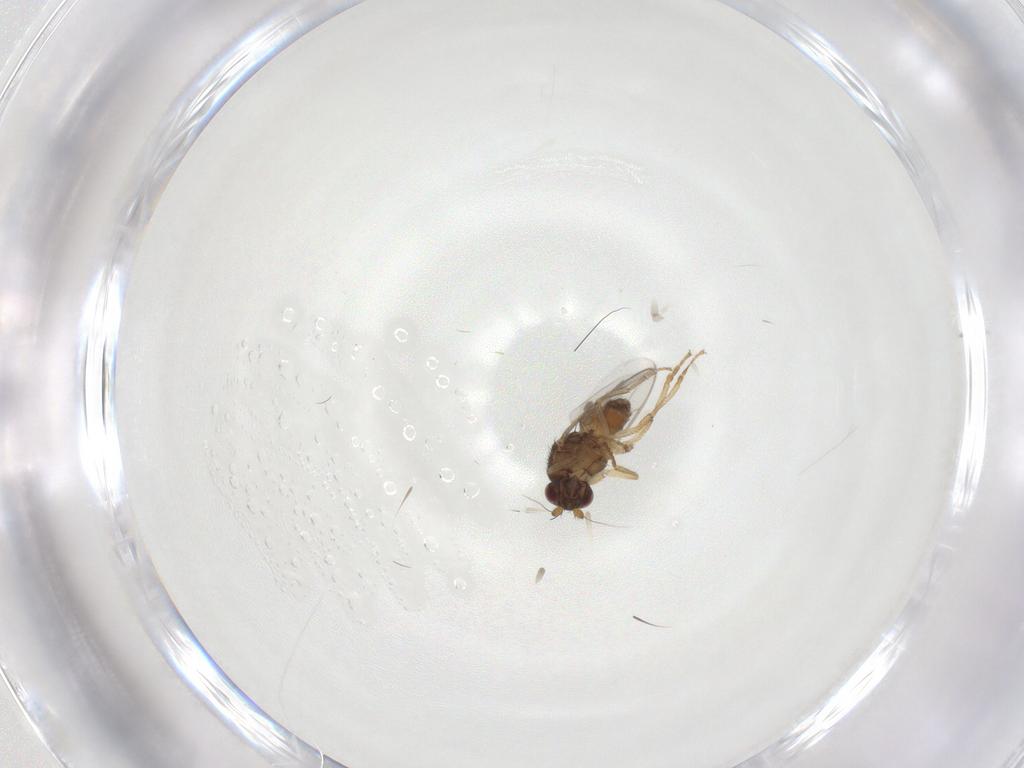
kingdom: Animalia
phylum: Arthropoda
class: Insecta
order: Diptera
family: Sphaeroceridae
